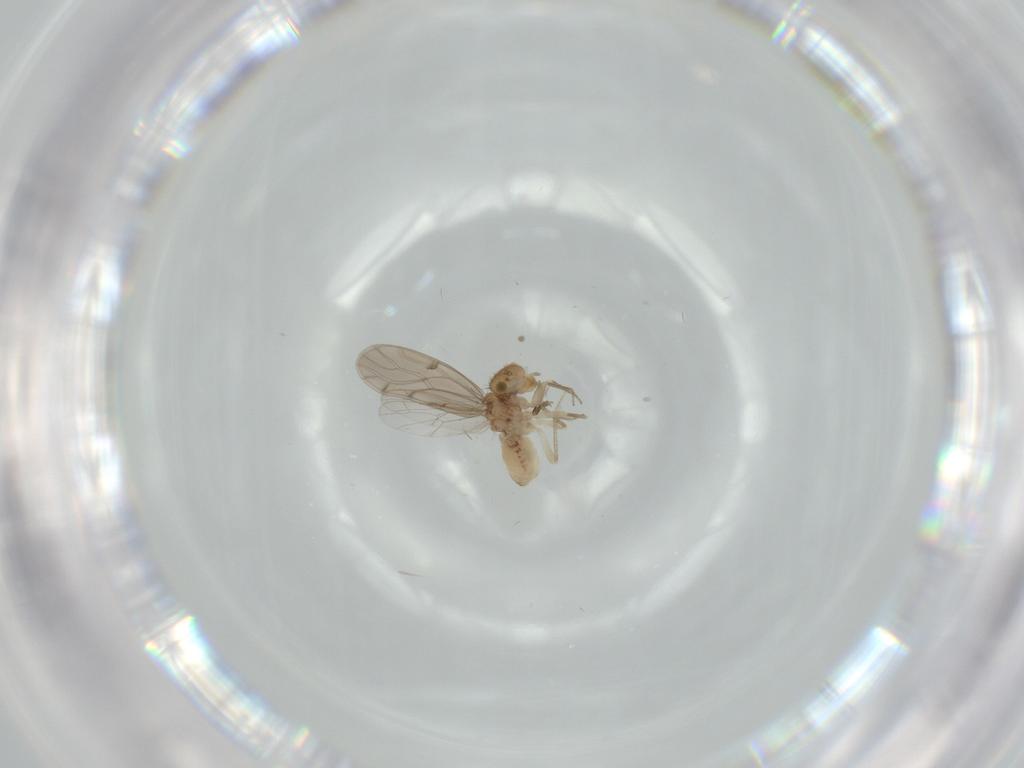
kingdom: Animalia
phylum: Arthropoda
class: Insecta
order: Psocodea
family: Ectopsocidae
